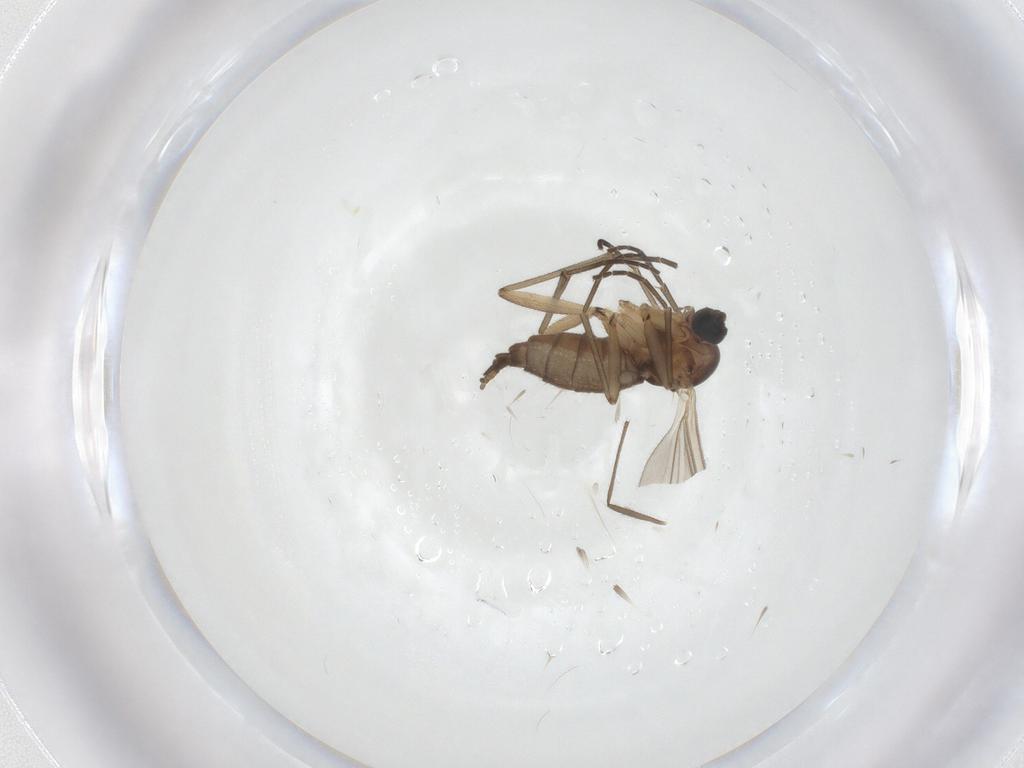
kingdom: Animalia
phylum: Arthropoda
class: Insecta
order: Diptera
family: Sciaridae
